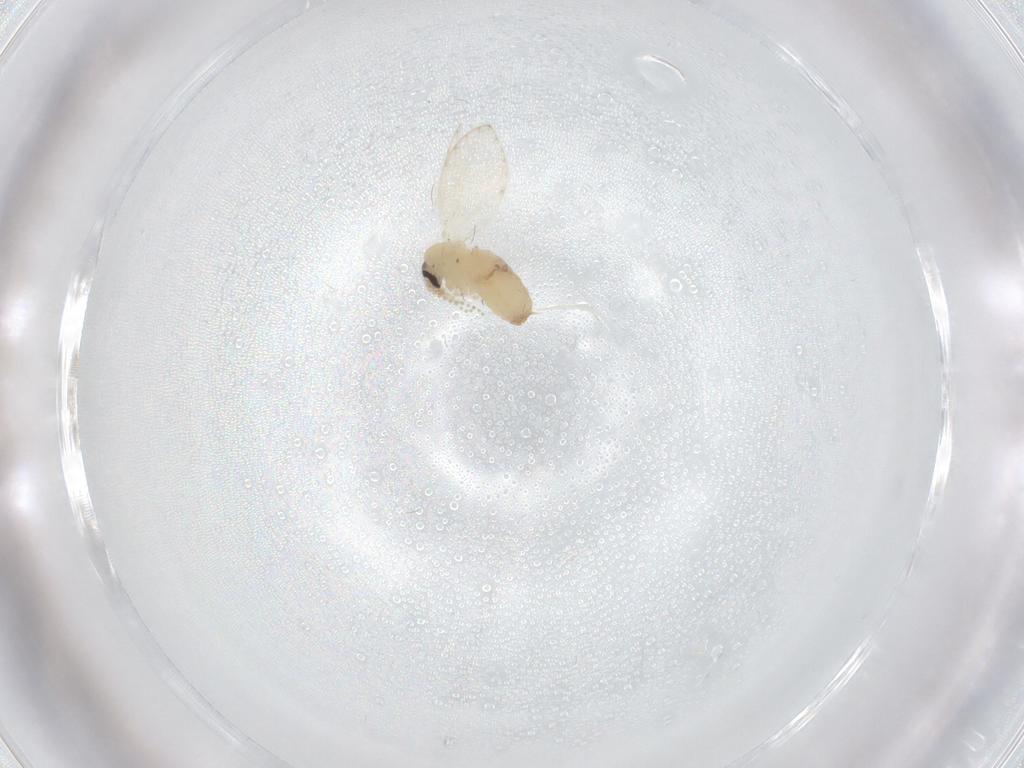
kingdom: Animalia
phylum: Arthropoda
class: Insecta
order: Diptera
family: Psychodidae
